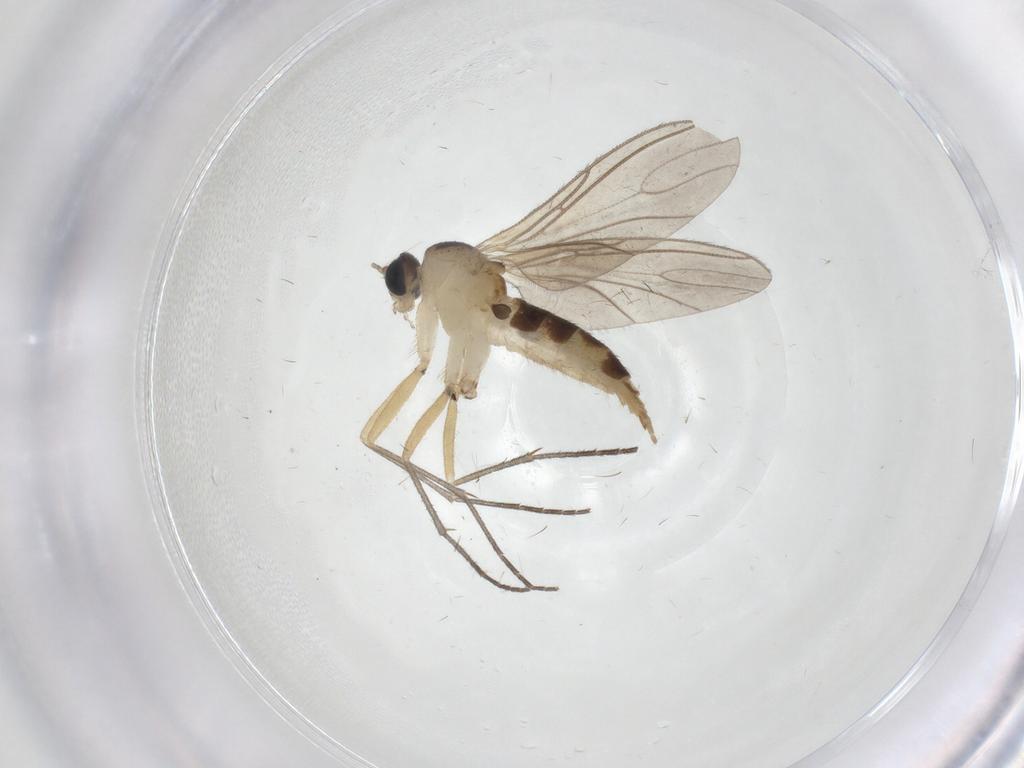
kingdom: Animalia
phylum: Arthropoda
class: Insecta
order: Diptera
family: Sciaridae
